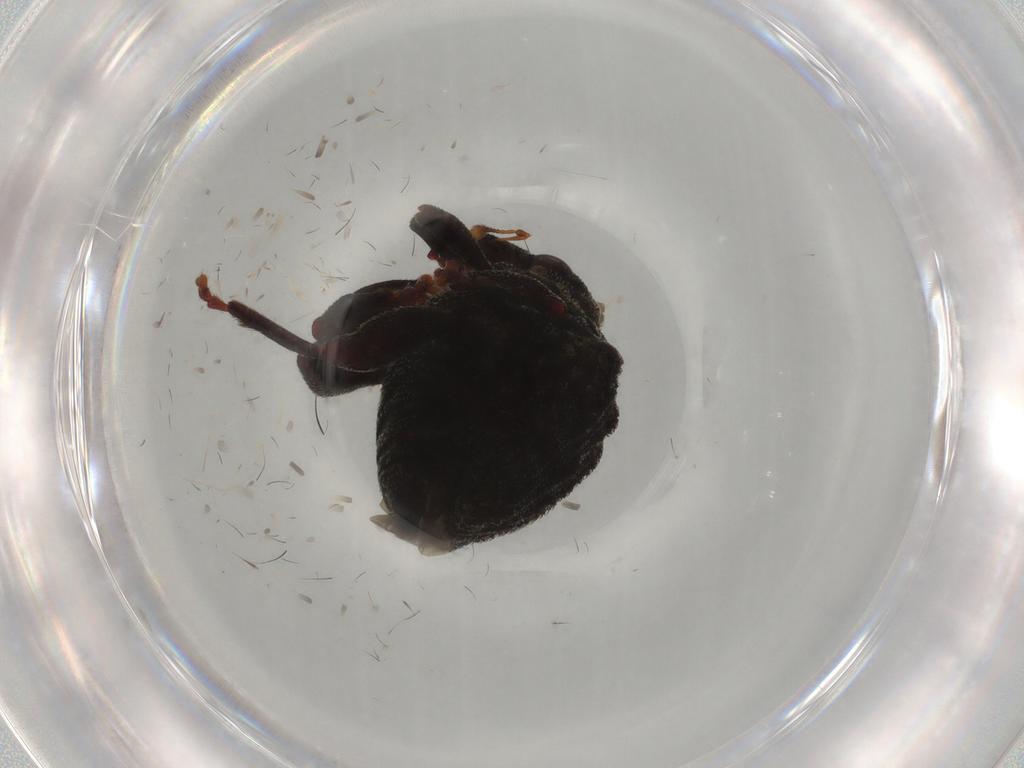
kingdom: Animalia
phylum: Arthropoda
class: Insecta
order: Coleoptera
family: Curculionidae
